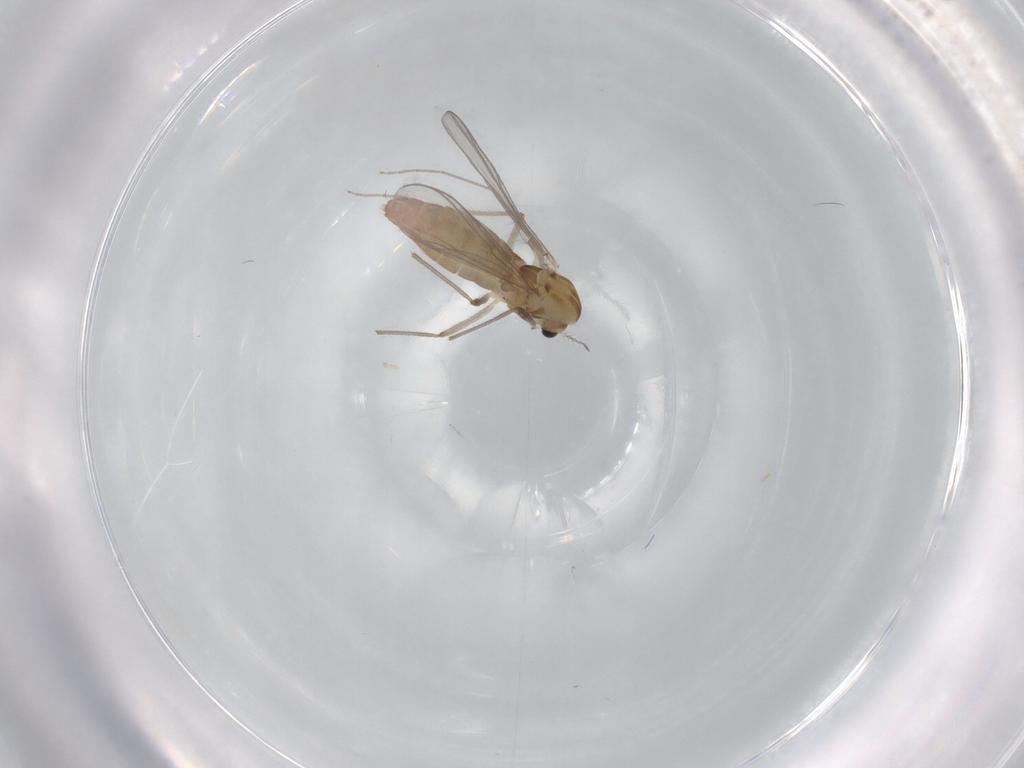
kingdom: Animalia
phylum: Arthropoda
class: Insecta
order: Diptera
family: Chironomidae
